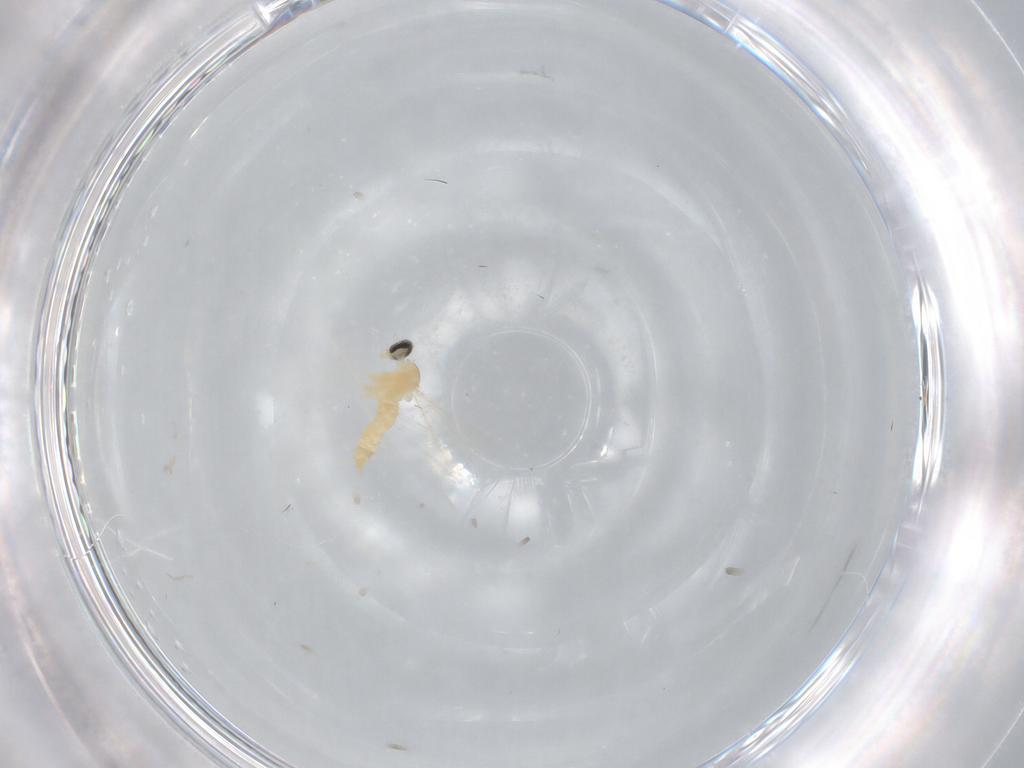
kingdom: Animalia
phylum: Arthropoda
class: Insecta
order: Diptera
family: Cecidomyiidae
